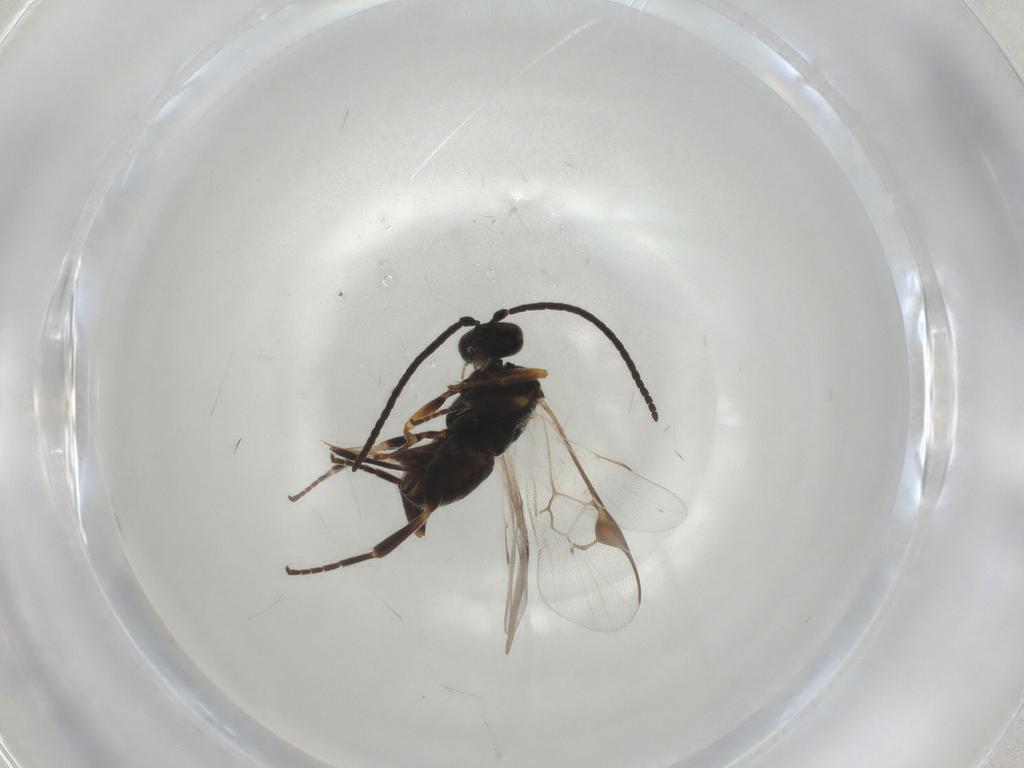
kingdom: Animalia
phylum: Arthropoda
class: Insecta
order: Hymenoptera
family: Braconidae
